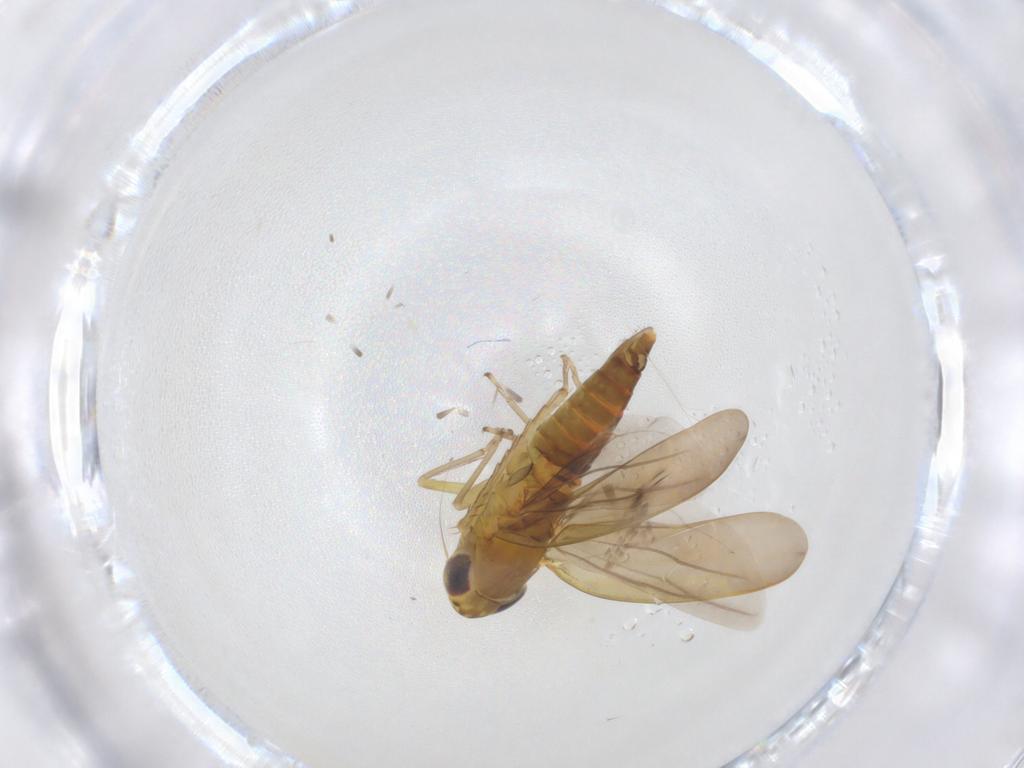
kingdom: Animalia
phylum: Arthropoda
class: Insecta
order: Hemiptera
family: Cicadellidae
